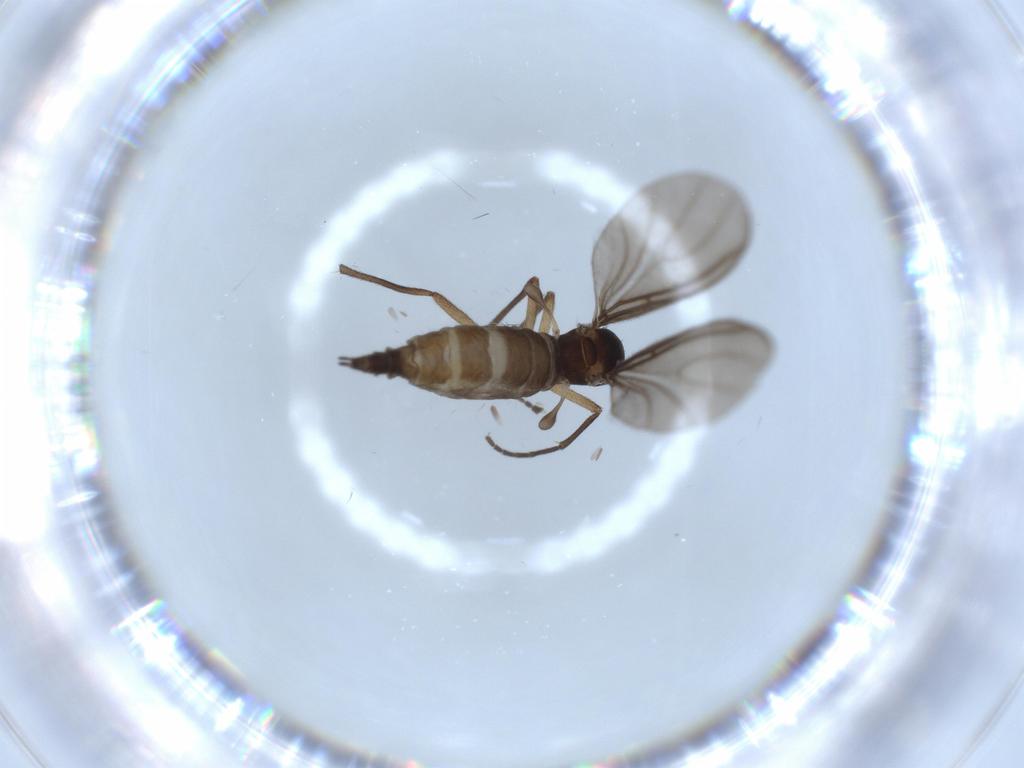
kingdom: Animalia
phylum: Arthropoda
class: Insecta
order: Diptera
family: Sciaridae
